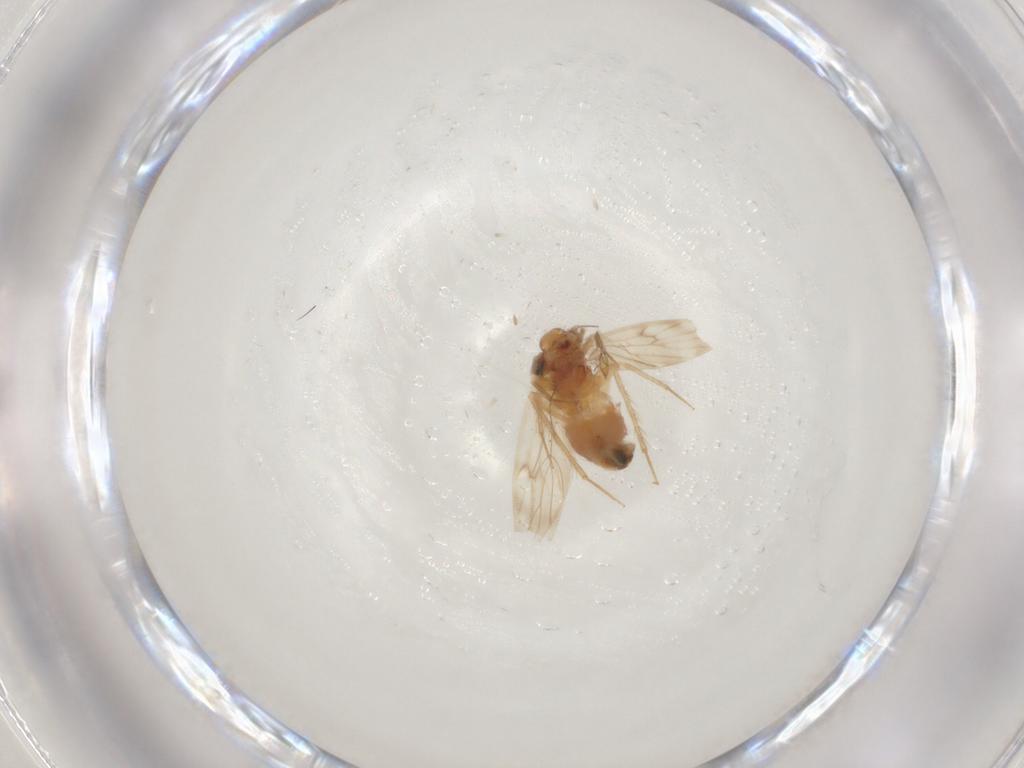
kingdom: Animalia
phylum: Arthropoda
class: Insecta
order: Psocodea
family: Lepidopsocidae
